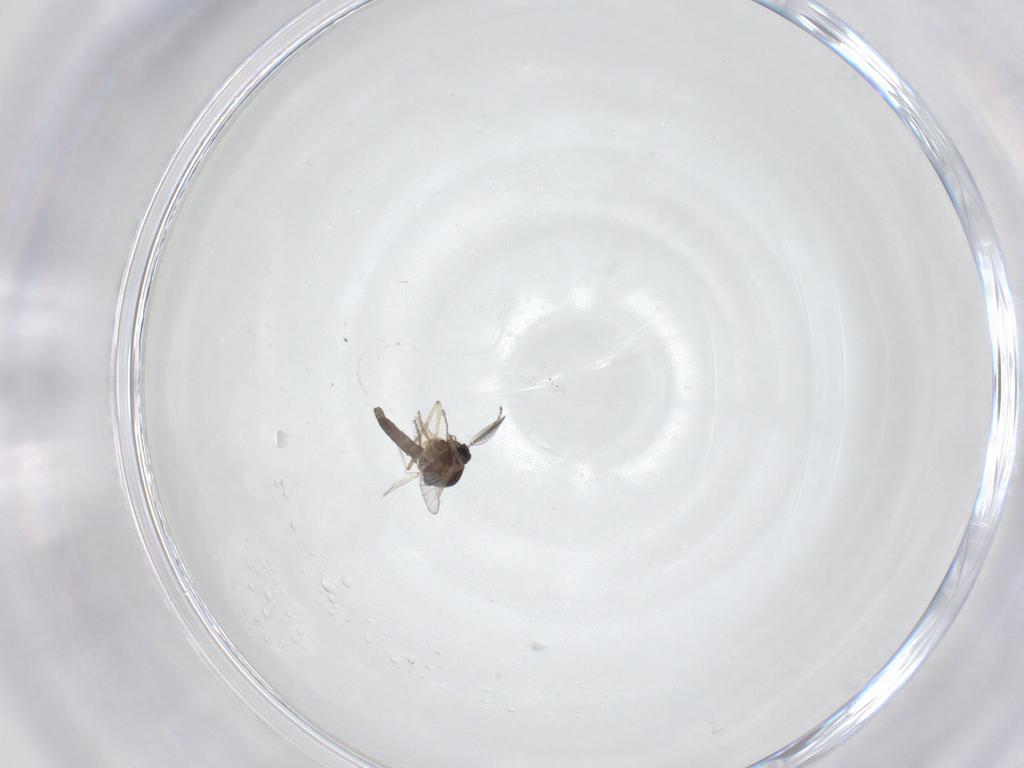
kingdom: Animalia
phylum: Arthropoda
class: Insecta
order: Diptera
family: Ceratopogonidae
